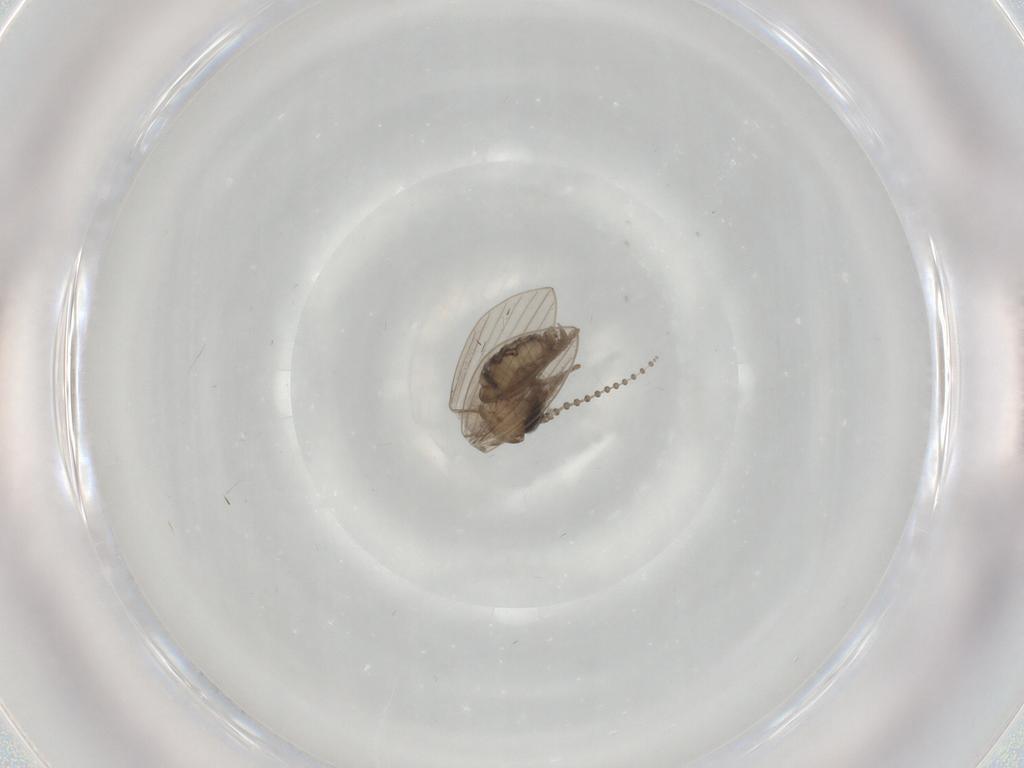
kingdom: Animalia
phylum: Arthropoda
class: Insecta
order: Diptera
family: Psychodidae
